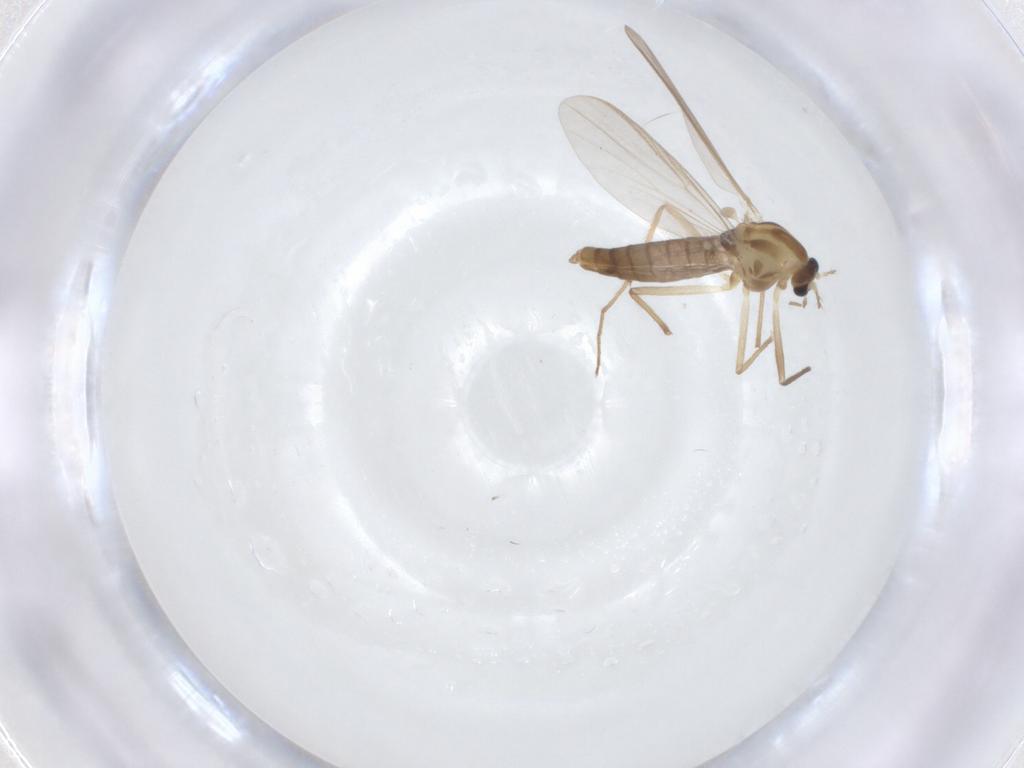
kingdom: Animalia
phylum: Arthropoda
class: Insecta
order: Diptera
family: Chironomidae
